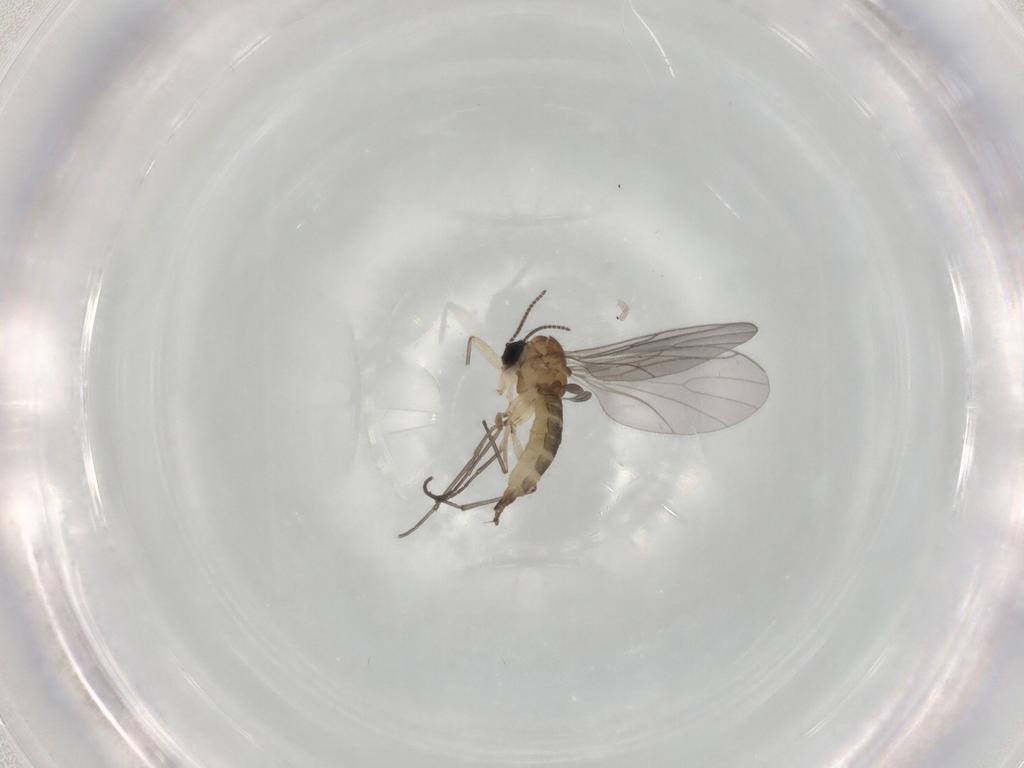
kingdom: Animalia
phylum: Arthropoda
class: Insecta
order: Diptera
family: Sciaridae
